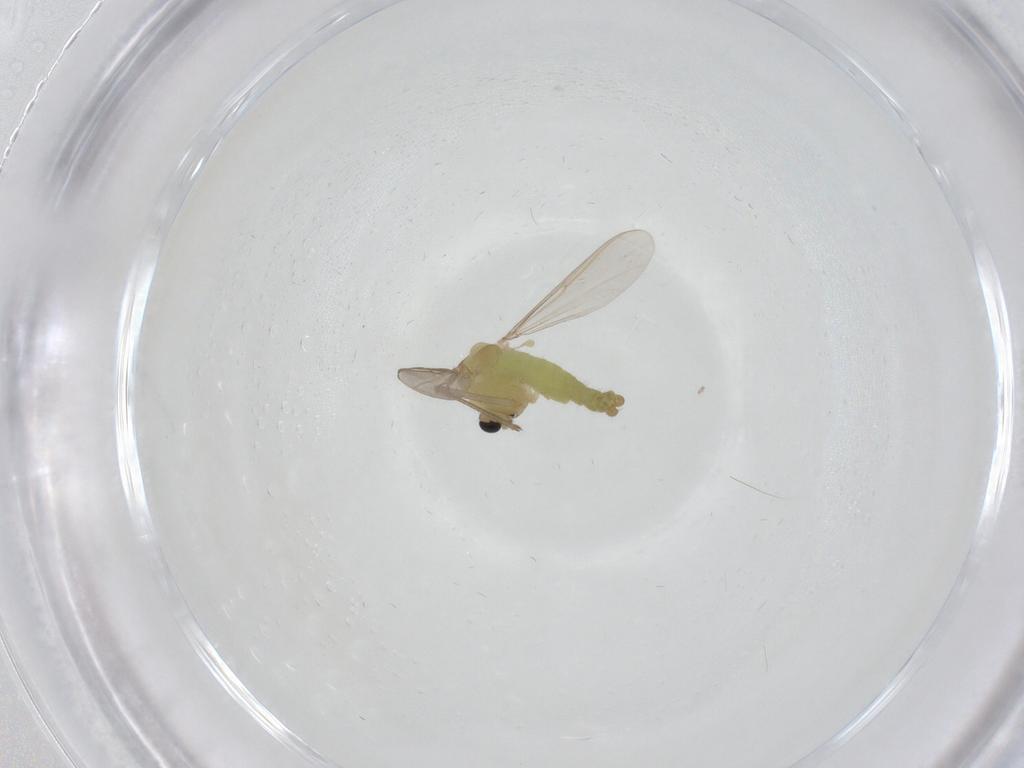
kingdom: Animalia
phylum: Arthropoda
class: Insecta
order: Diptera
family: Chironomidae
